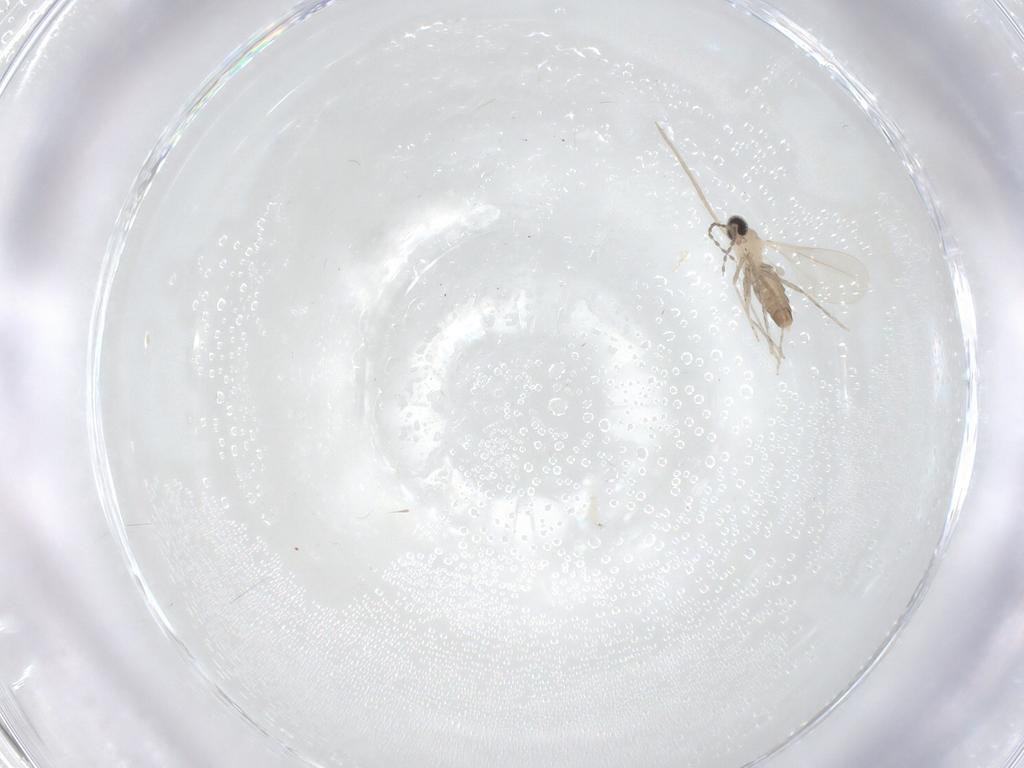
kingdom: Animalia
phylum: Arthropoda
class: Insecta
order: Diptera
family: Cecidomyiidae
